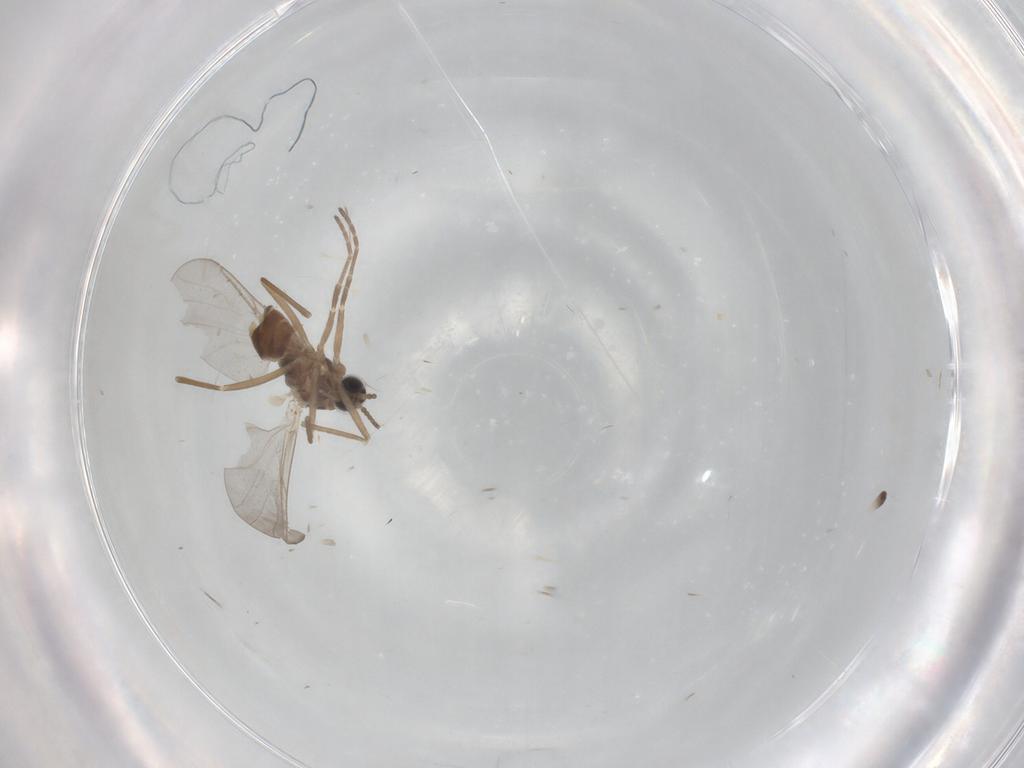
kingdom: Animalia
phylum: Arthropoda
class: Insecta
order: Diptera
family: Cecidomyiidae
